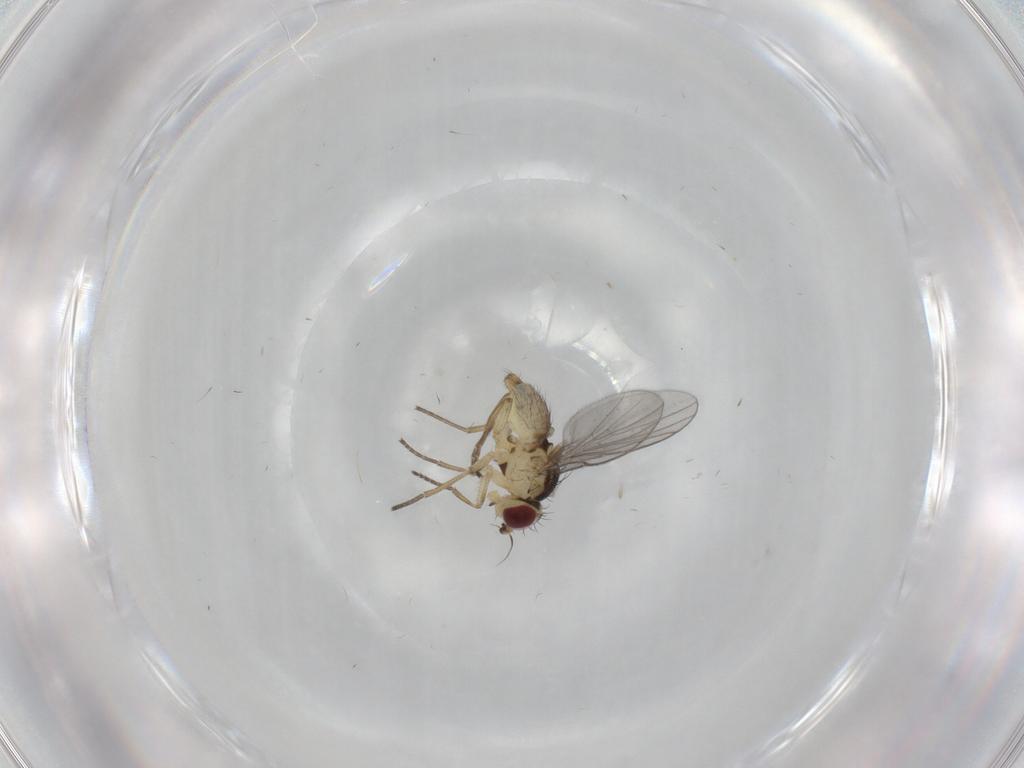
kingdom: Animalia
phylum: Arthropoda
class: Insecta
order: Diptera
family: Agromyzidae
